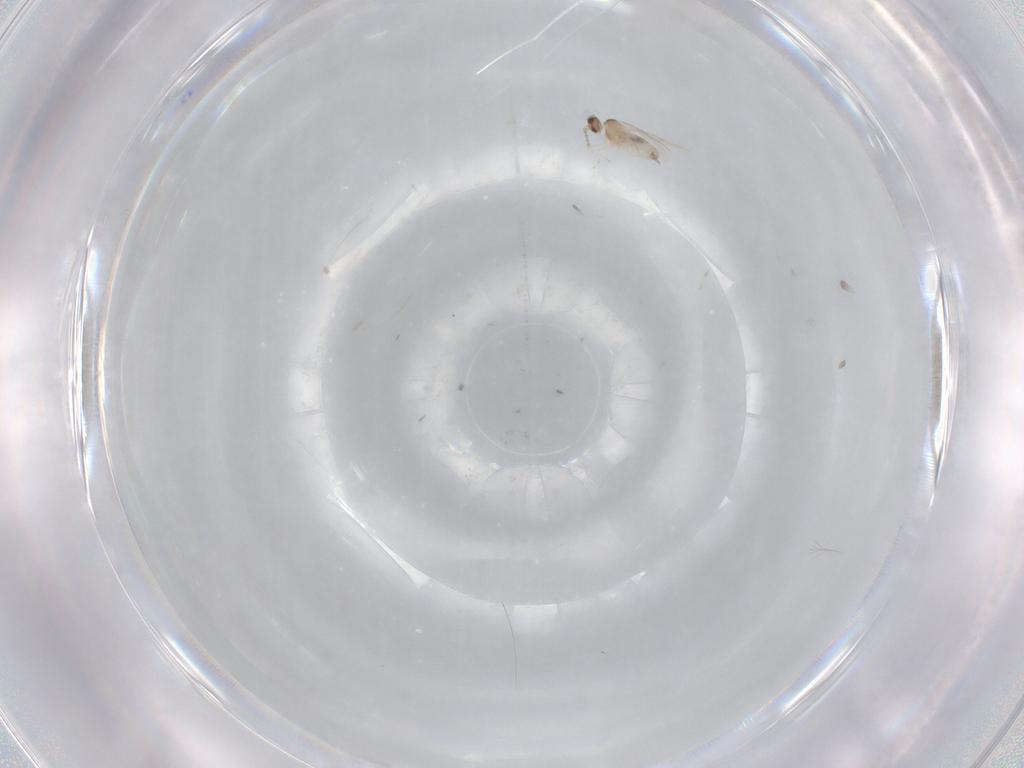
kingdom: Animalia
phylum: Arthropoda
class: Insecta
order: Diptera
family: Cecidomyiidae
